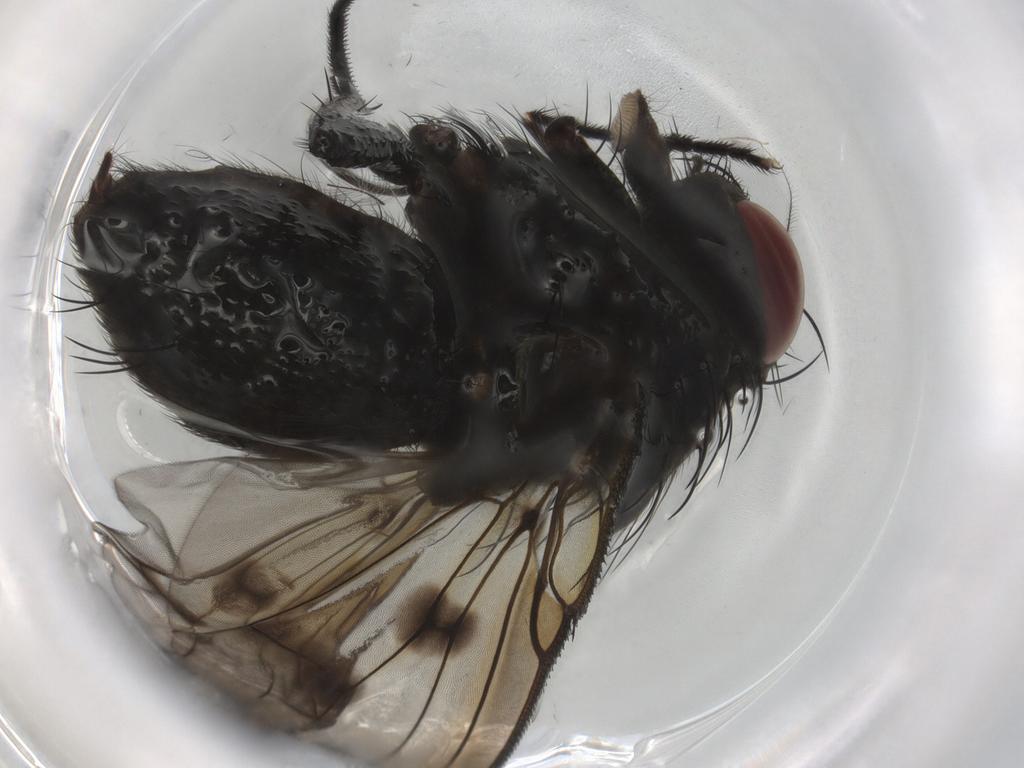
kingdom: Animalia
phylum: Arthropoda
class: Insecta
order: Diptera
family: Phoridae
